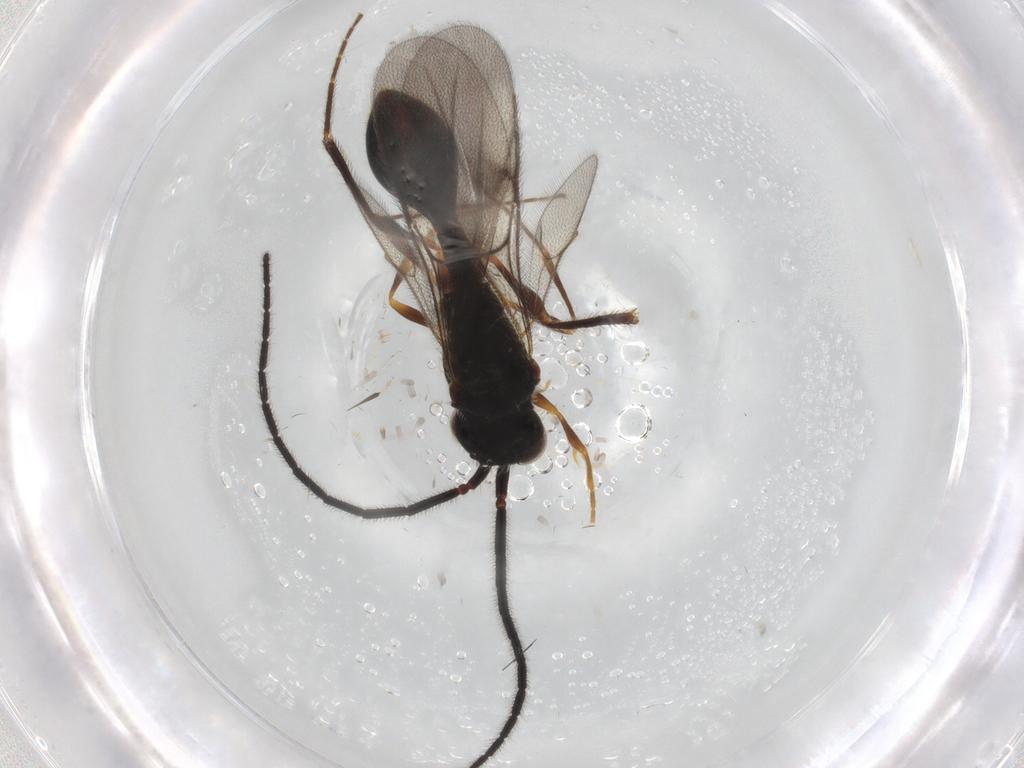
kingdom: Animalia
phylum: Arthropoda
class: Insecta
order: Hymenoptera
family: Diapriidae
